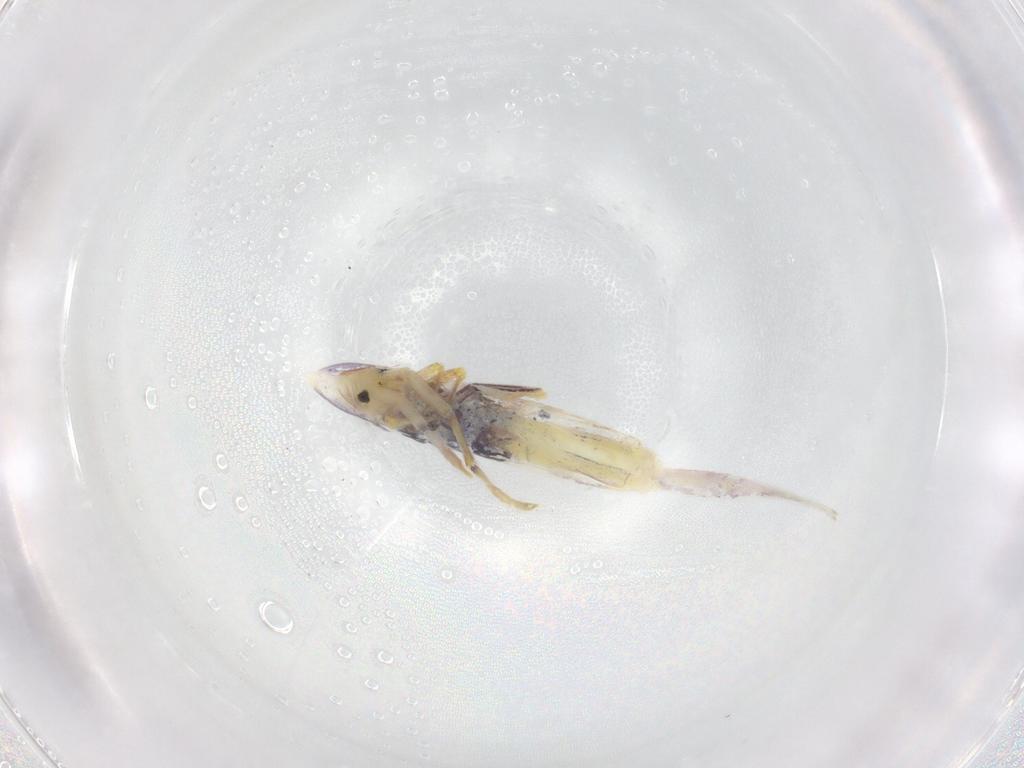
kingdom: Animalia
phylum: Arthropoda
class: Collembola
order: Entomobryomorpha
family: Entomobryidae
